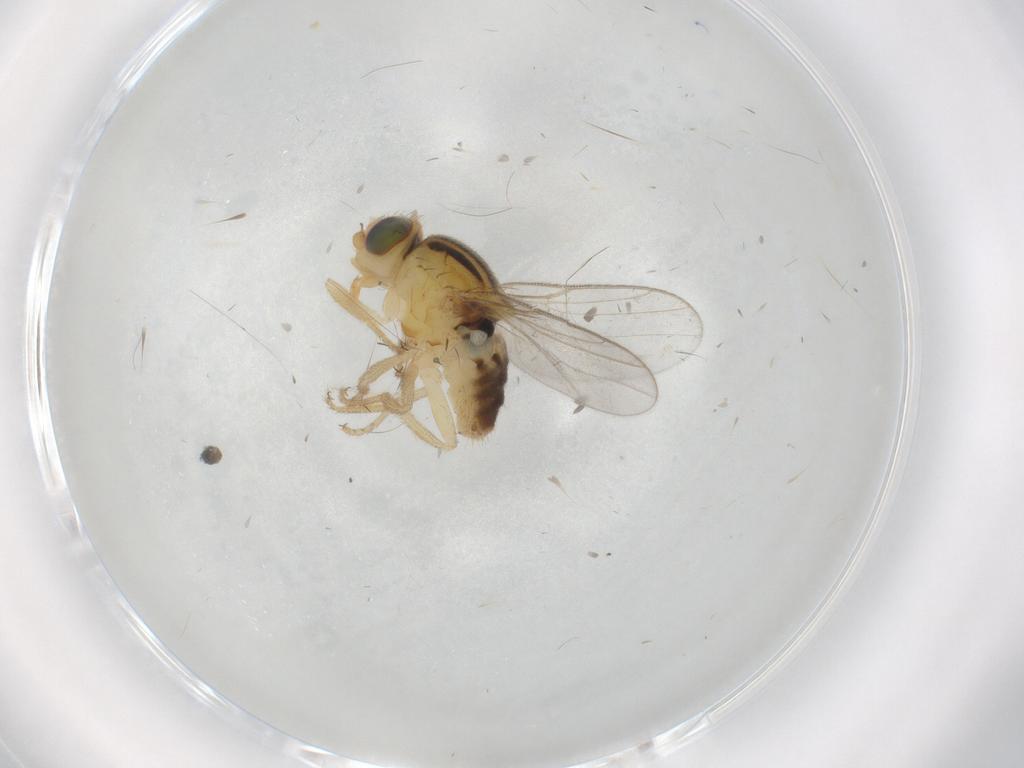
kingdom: Animalia
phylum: Arthropoda
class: Insecta
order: Diptera
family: Chloropidae
